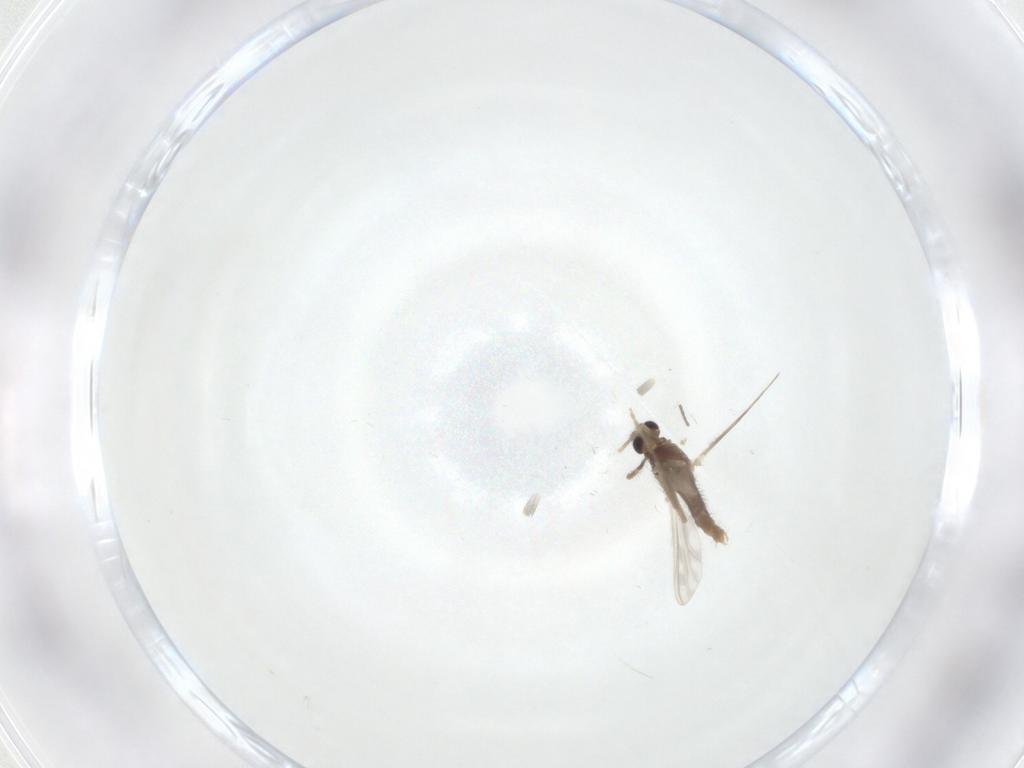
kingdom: Animalia
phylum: Arthropoda
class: Insecta
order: Diptera
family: Chironomidae
